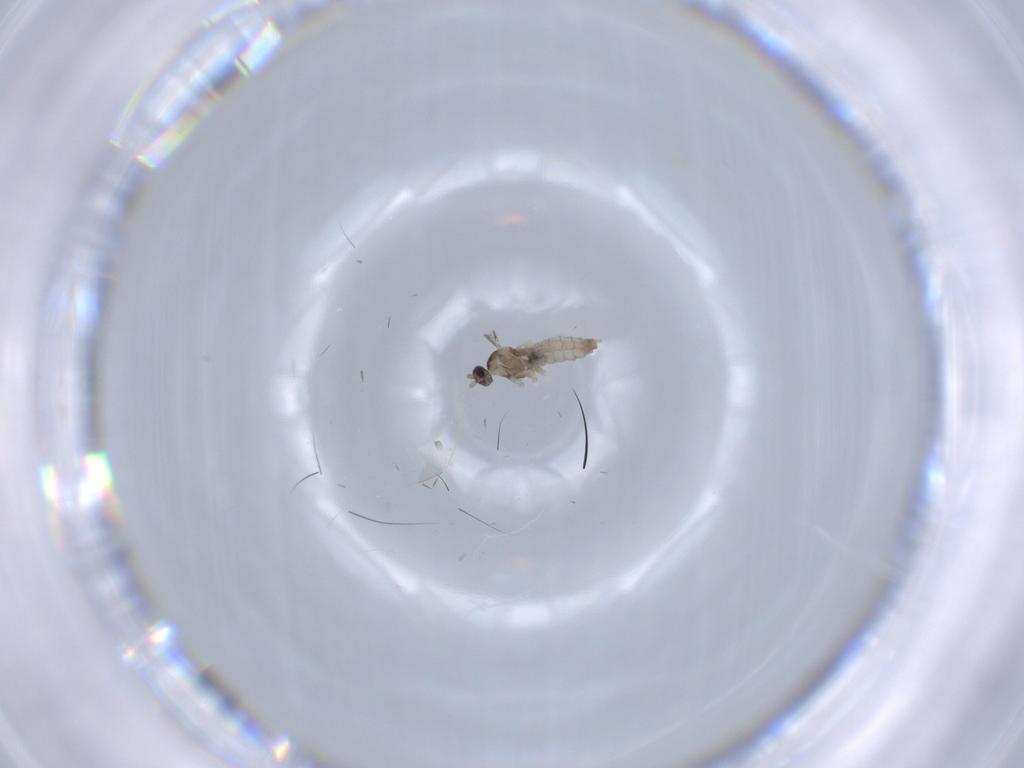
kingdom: Animalia
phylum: Arthropoda
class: Insecta
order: Diptera
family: Cecidomyiidae
